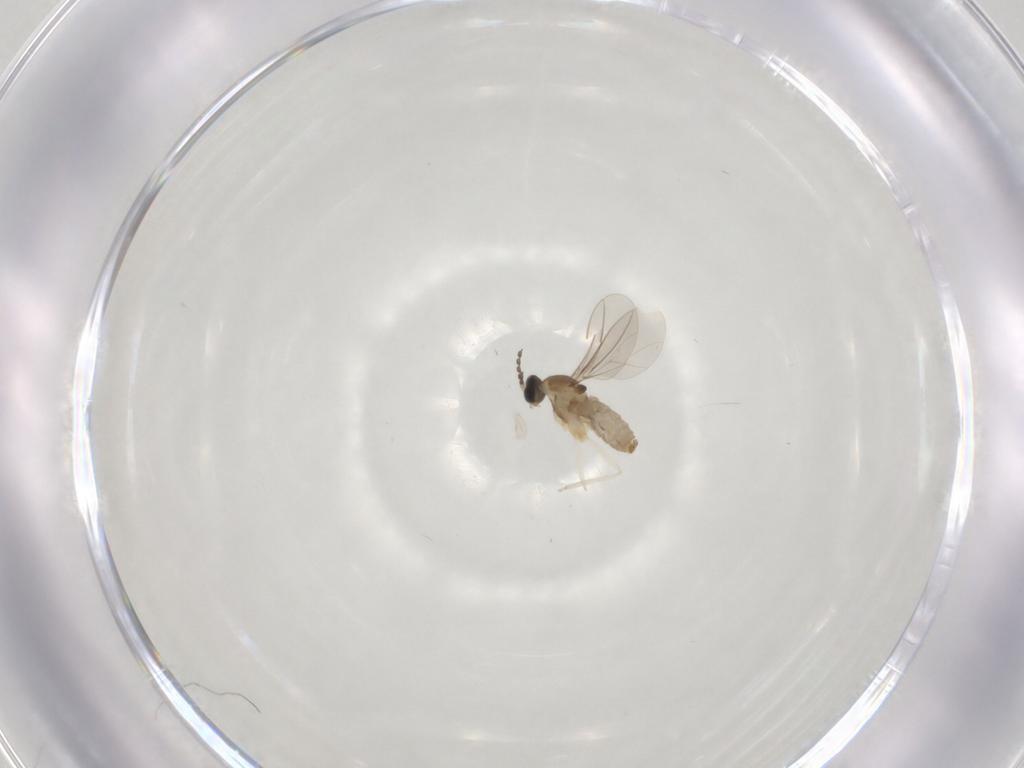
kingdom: Animalia
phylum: Arthropoda
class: Insecta
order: Diptera
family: Cecidomyiidae
